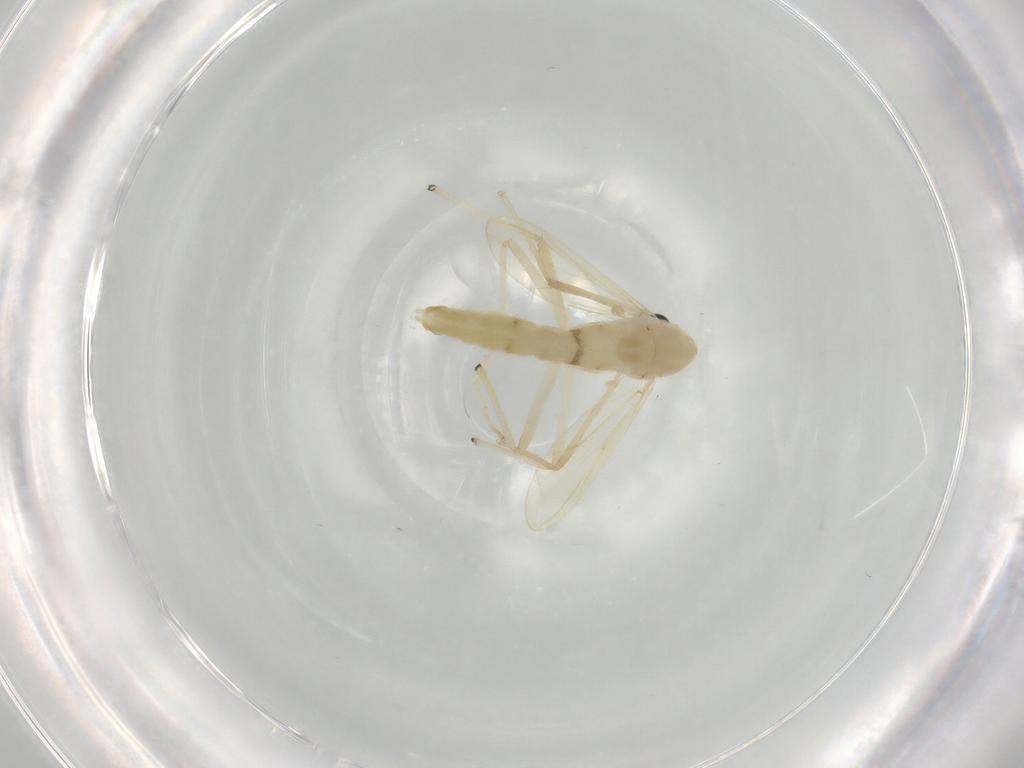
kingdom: Animalia
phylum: Arthropoda
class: Insecta
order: Diptera
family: Chironomidae
